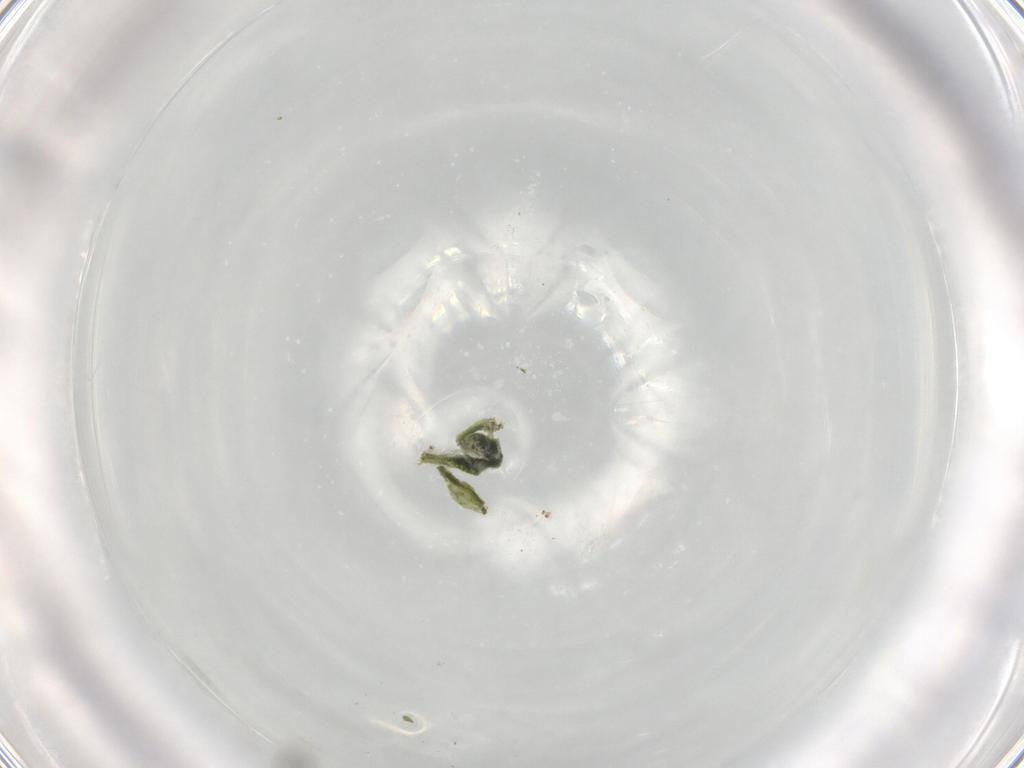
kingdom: Animalia
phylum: Arthropoda
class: Insecta
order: Diptera
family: Chironomidae
